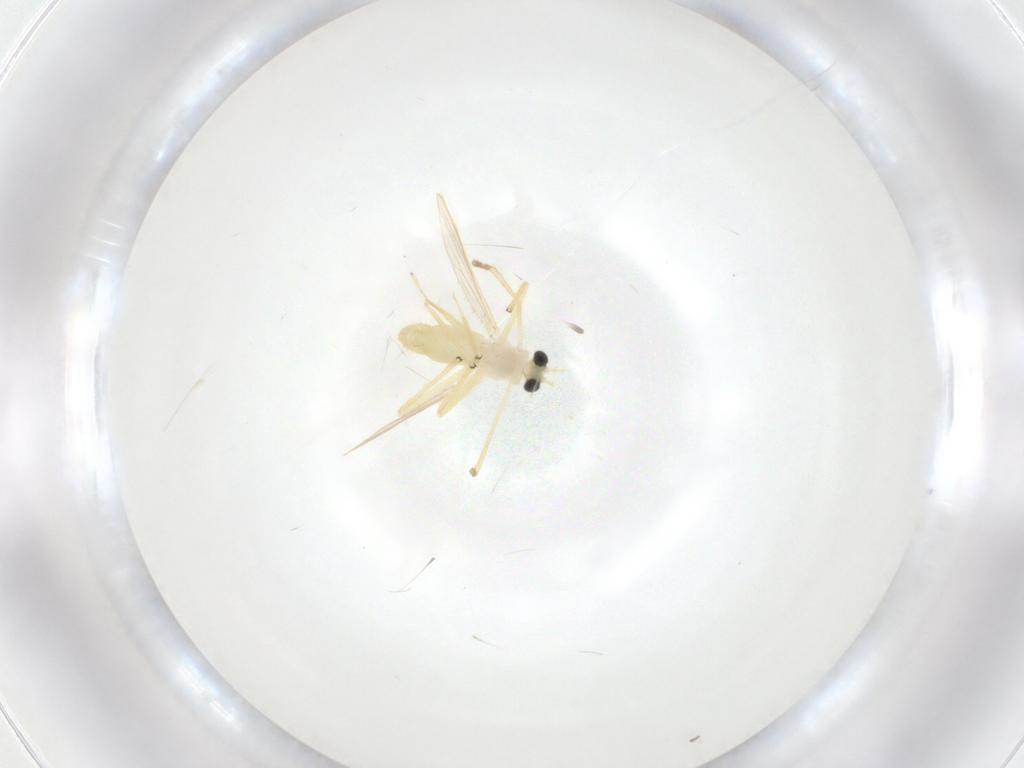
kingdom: Animalia
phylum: Arthropoda
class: Insecta
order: Diptera
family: Chironomidae
